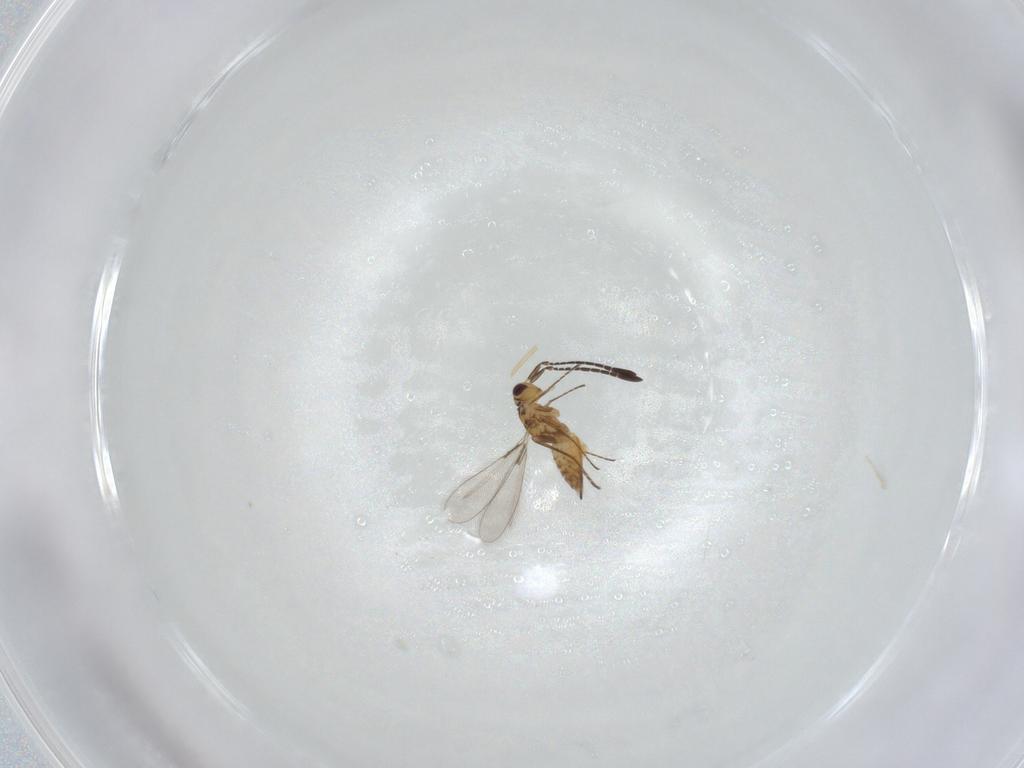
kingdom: Animalia
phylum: Arthropoda
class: Insecta
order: Hymenoptera
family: Mymaridae
